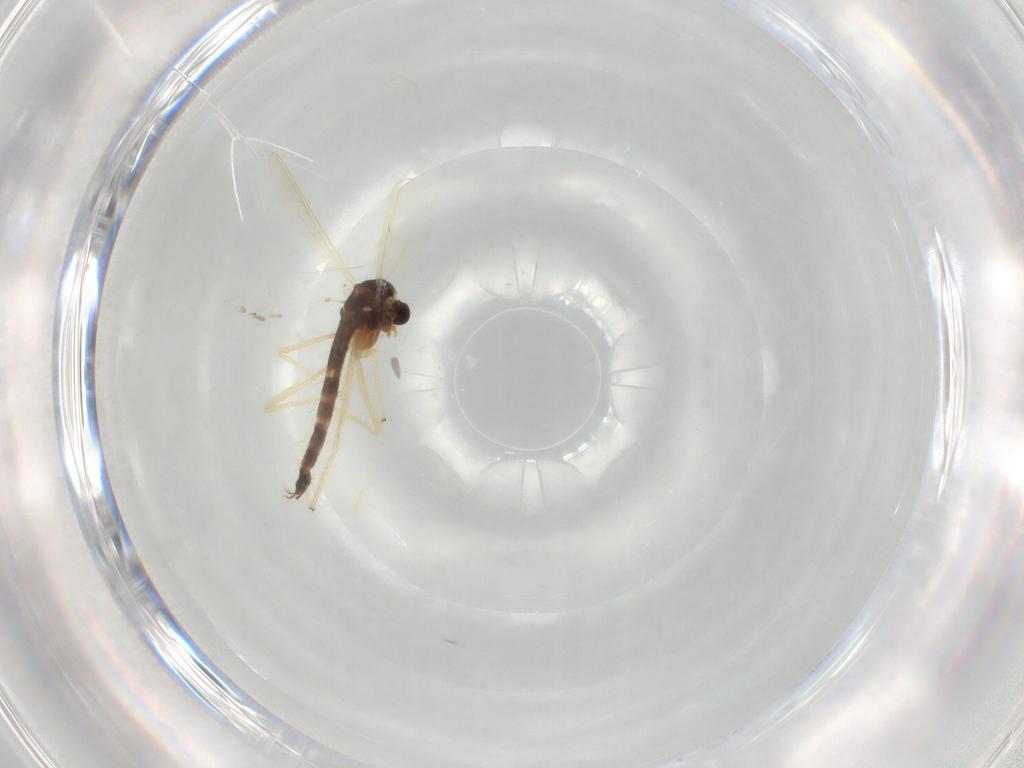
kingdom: Animalia
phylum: Arthropoda
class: Insecta
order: Diptera
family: Chironomidae
